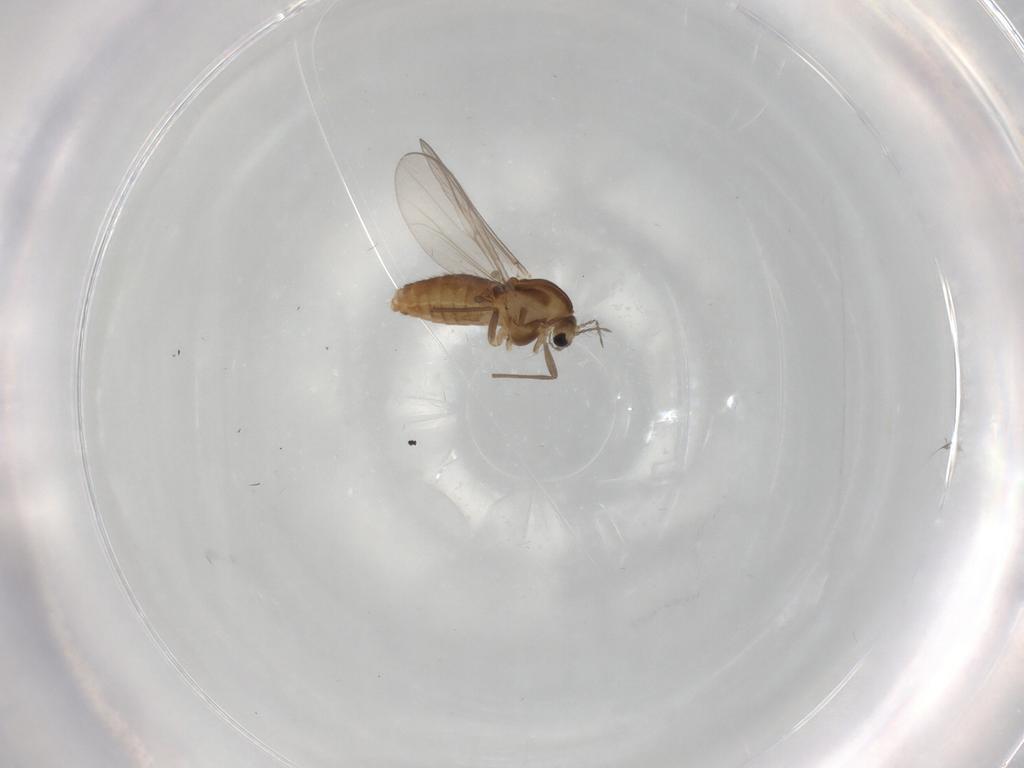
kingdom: Animalia
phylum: Arthropoda
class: Insecta
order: Diptera
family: Chironomidae
